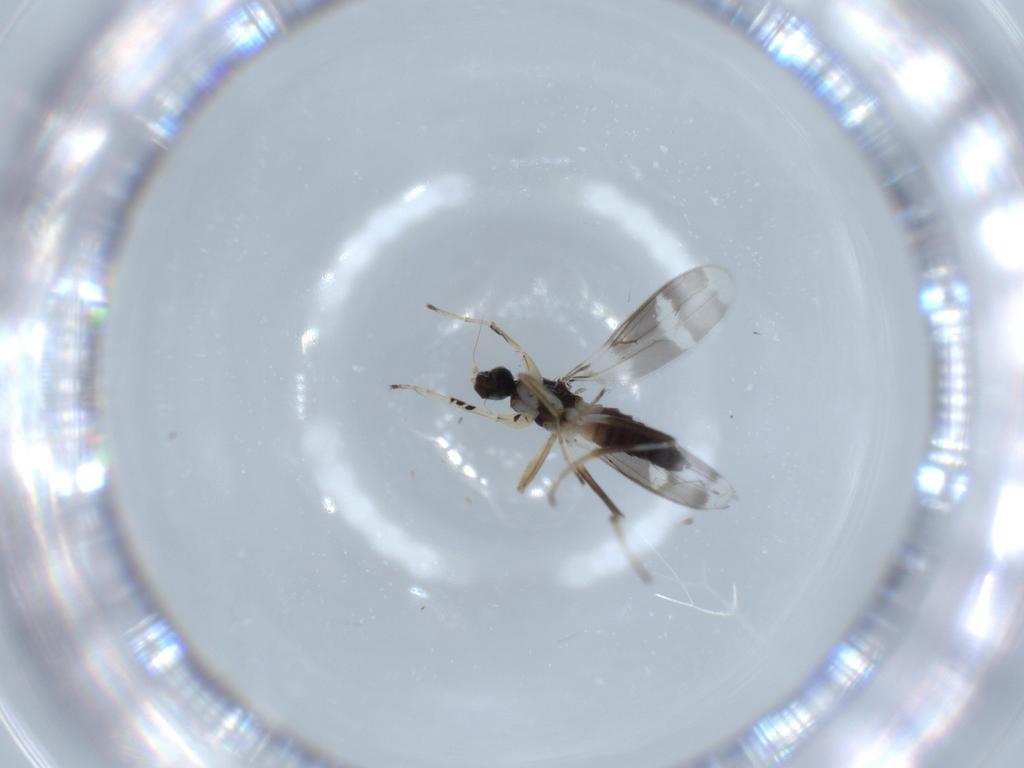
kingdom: Animalia
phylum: Arthropoda
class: Insecta
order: Diptera
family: Hybotidae
